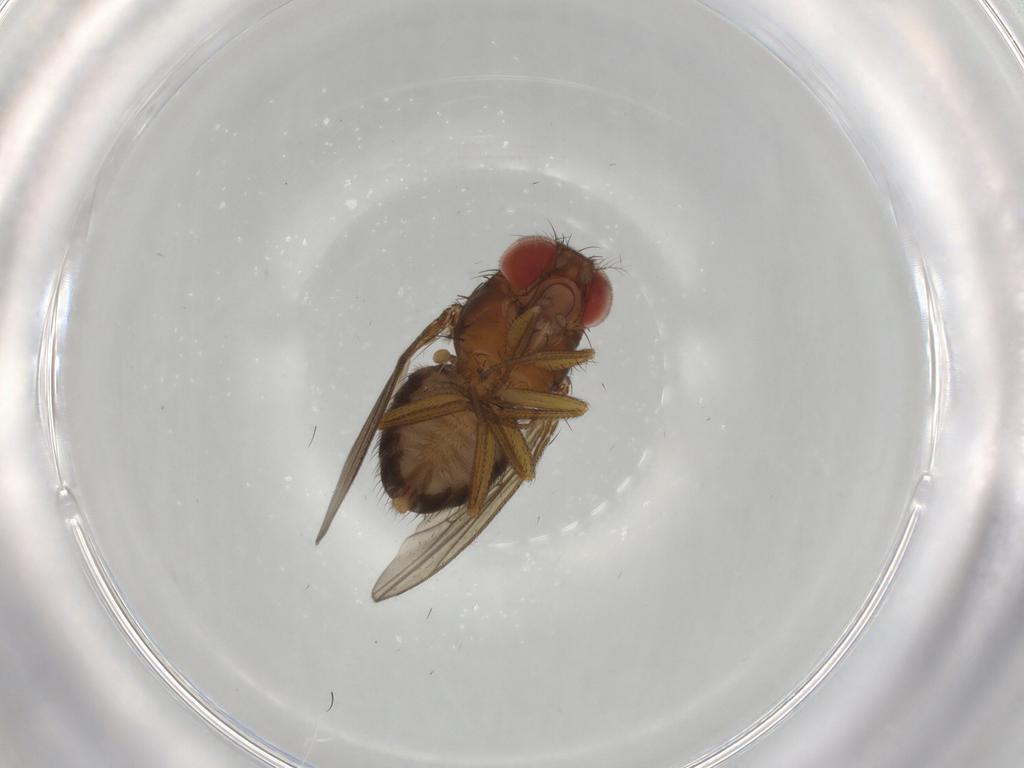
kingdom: Animalia
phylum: Arthropoda
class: Insecta
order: Diptera
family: Drosophilidae
